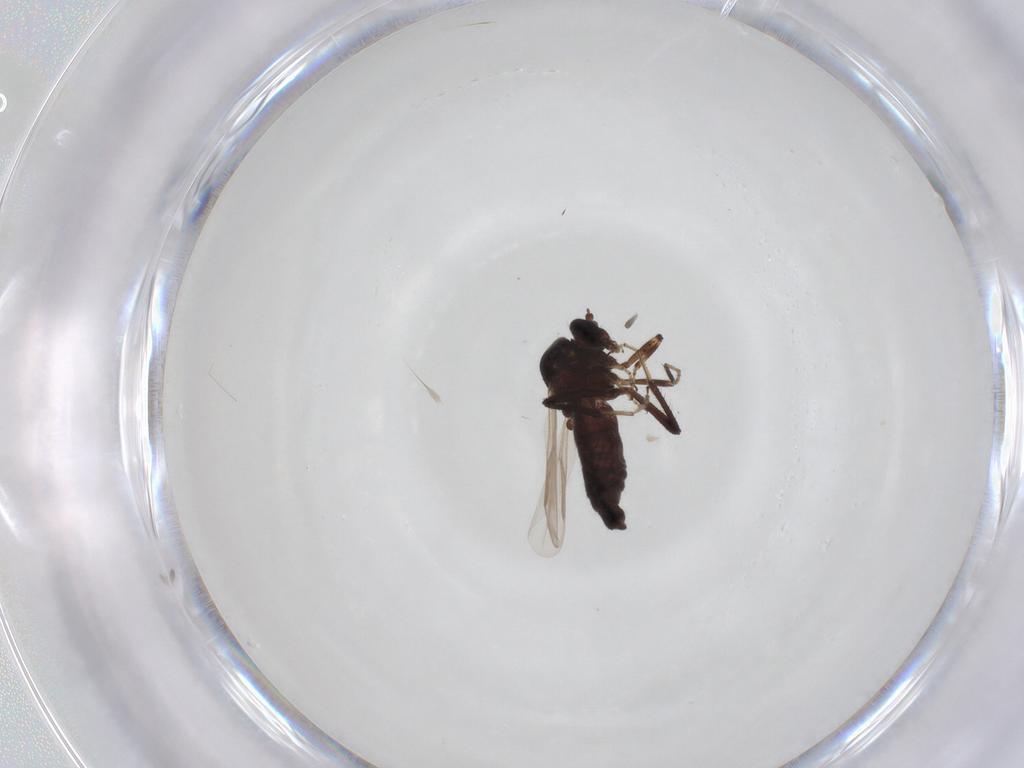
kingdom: Animalia
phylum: Arthropoda
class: Insecta
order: Diptera
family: Ceratopogonidae
